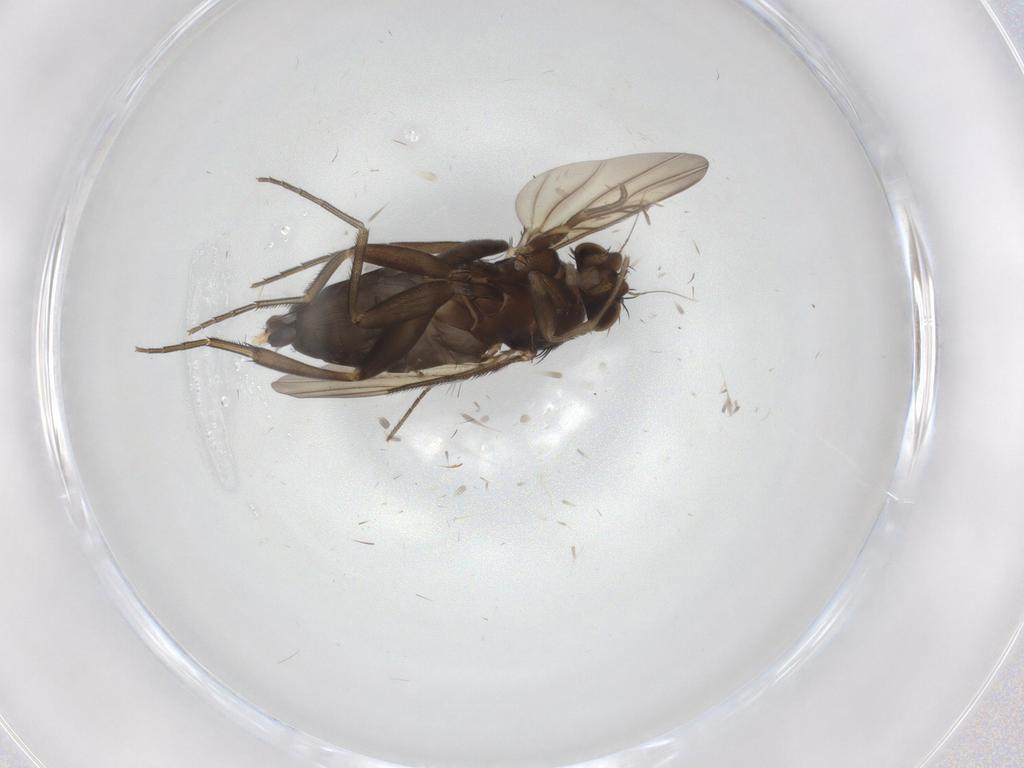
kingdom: Animalia
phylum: Arthropoda
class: Insecta
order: Diptera
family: Phoridae
